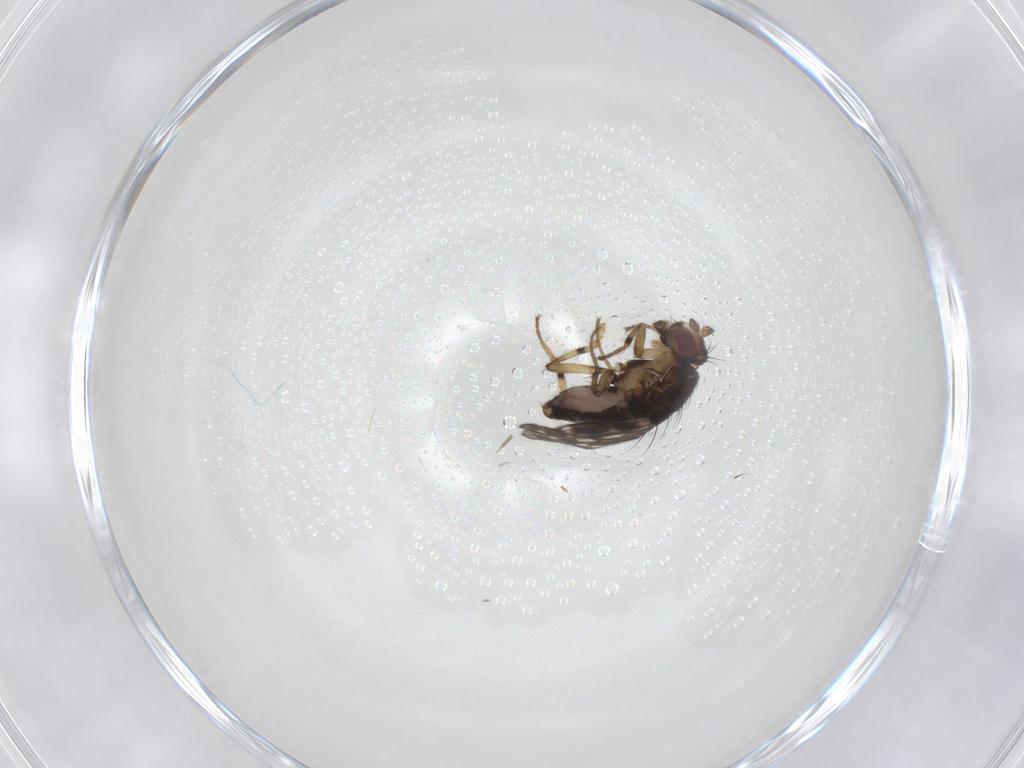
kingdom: Animalia
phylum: Arthropoda
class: Insecta
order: Diptera
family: Sphaeroceridae
